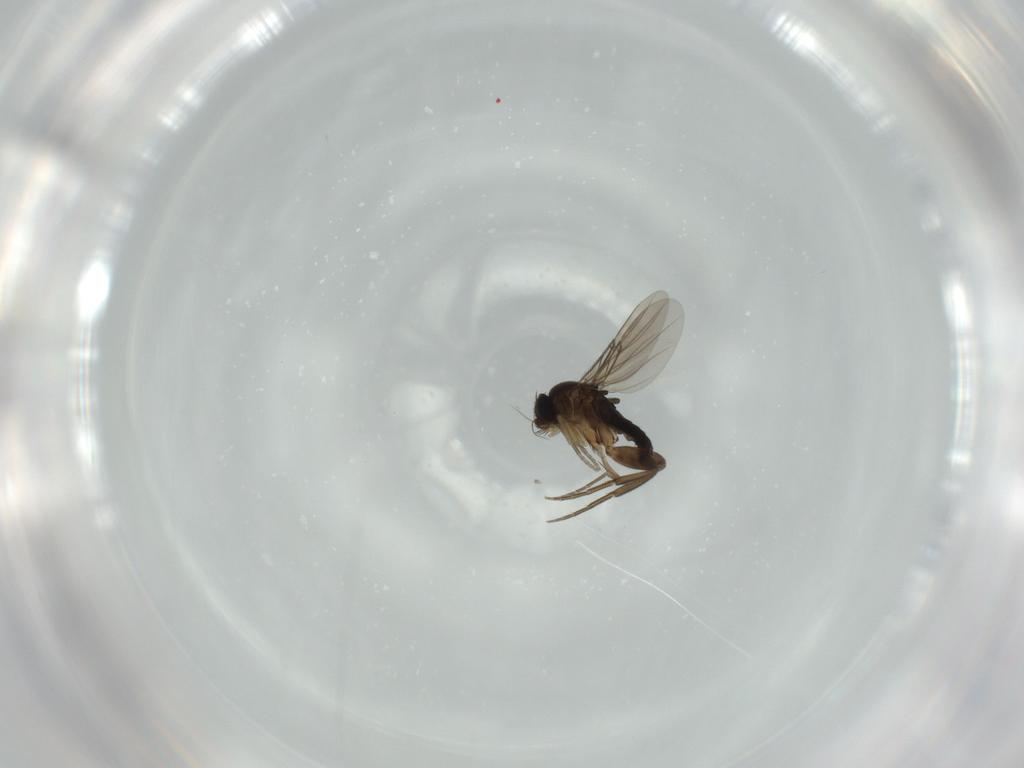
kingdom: Animalia
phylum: Arthropoda
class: Insecta
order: Diptera
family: Phoridae
